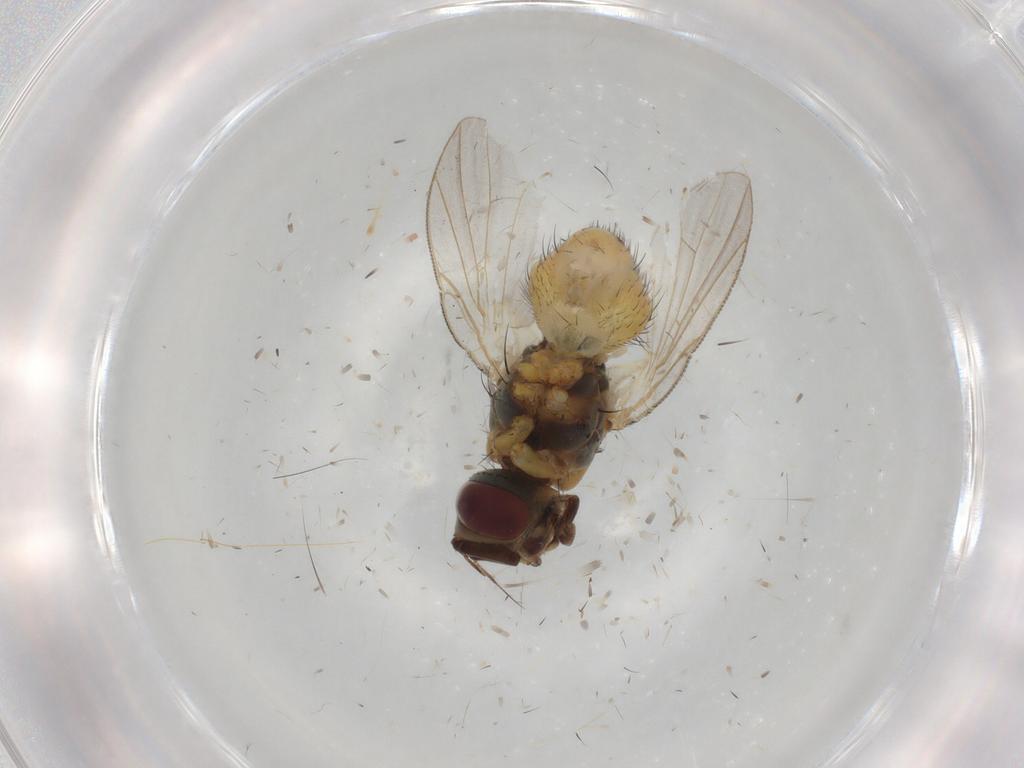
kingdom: Animalia
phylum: Arthropoda
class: Insecta
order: Diptera
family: Muscidae
